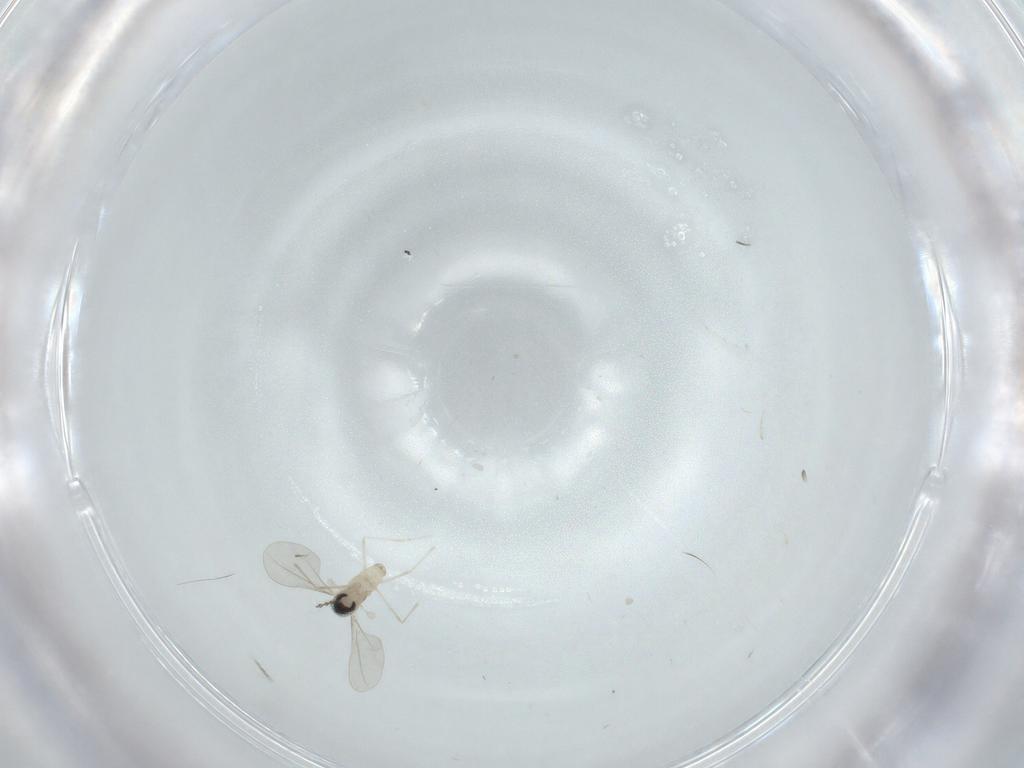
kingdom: Animalia
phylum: Arthropoda
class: Insecta
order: Diptera
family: Cecidomyiidae
